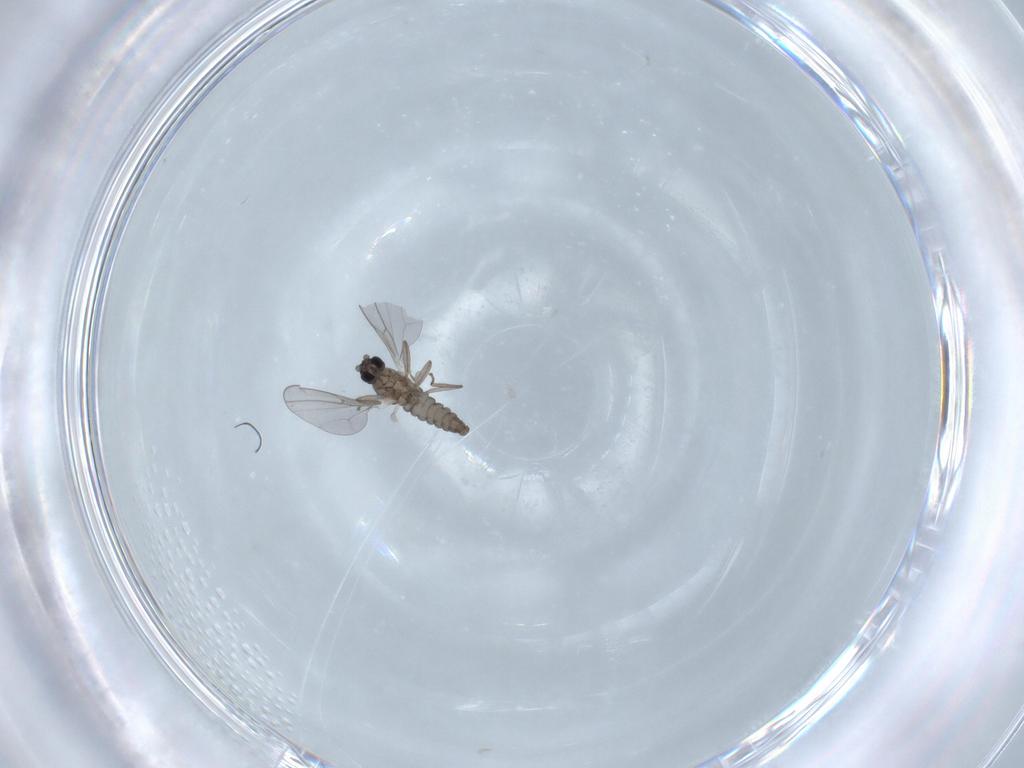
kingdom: Animalia
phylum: Arthropoda
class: Insecta
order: Diptera
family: Cecidomyiidae
